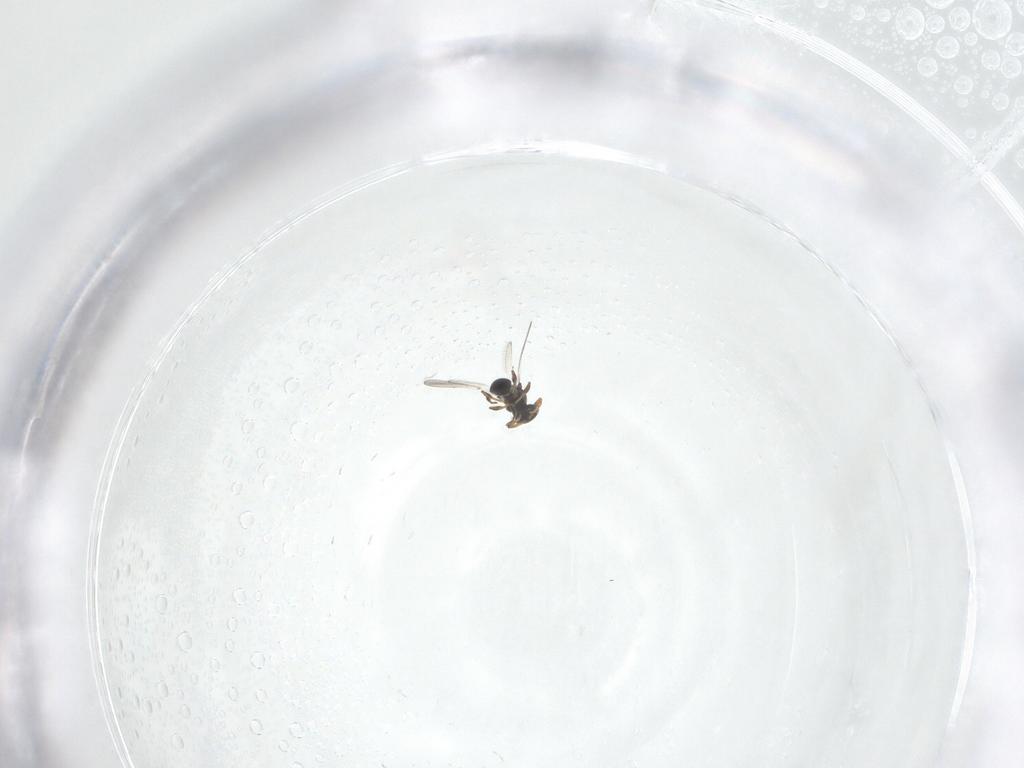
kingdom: Animalia
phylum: Arthropoda
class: Insecta
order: Hymenoptera
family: Platygastridae
